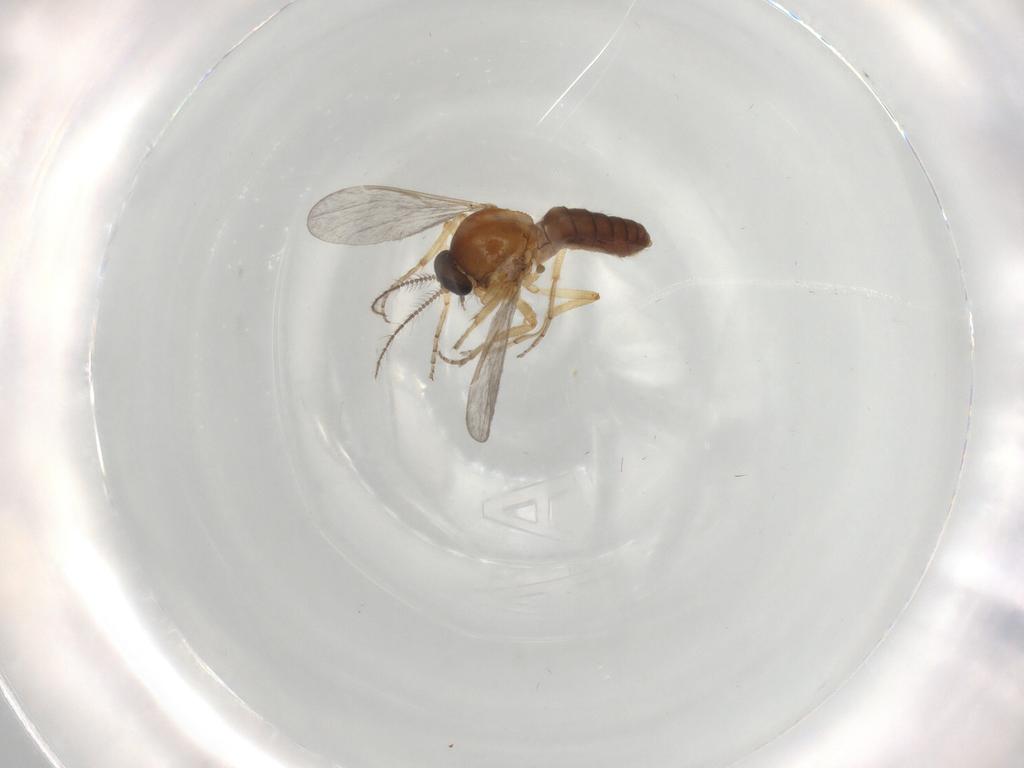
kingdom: Animalia
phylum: Arthropoda
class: Insecta
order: Diptera
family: Ceratopogonidae
